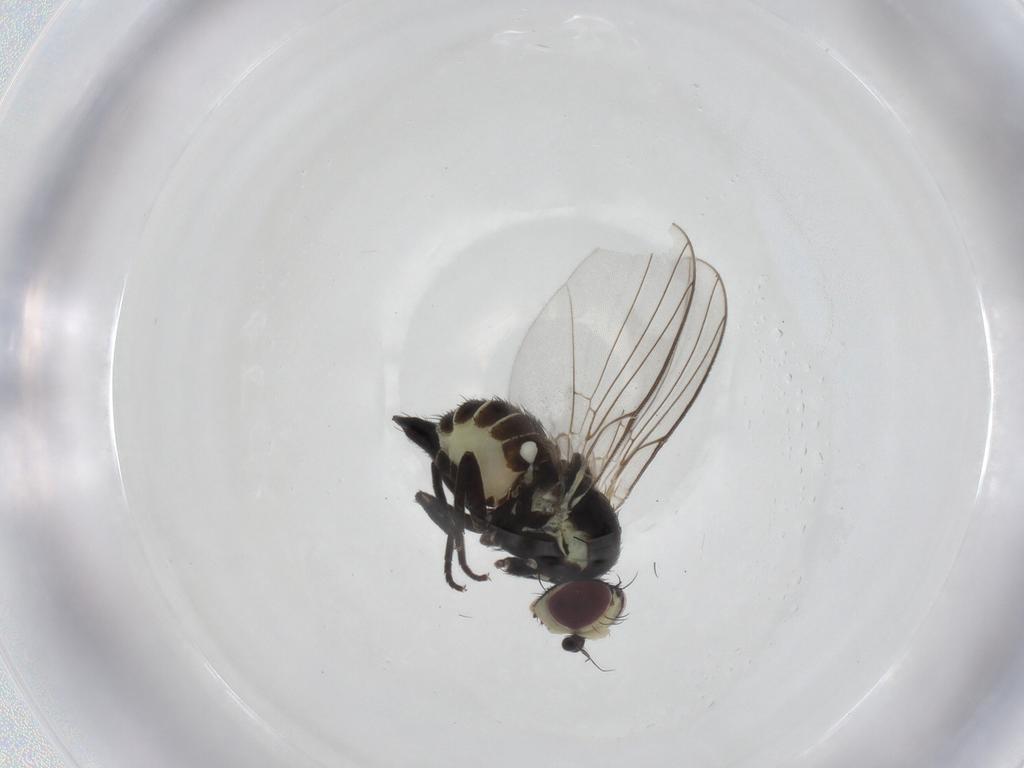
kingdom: Animalia
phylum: Arthropoda
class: Insecta
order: Diptera
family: Agromyzidae
